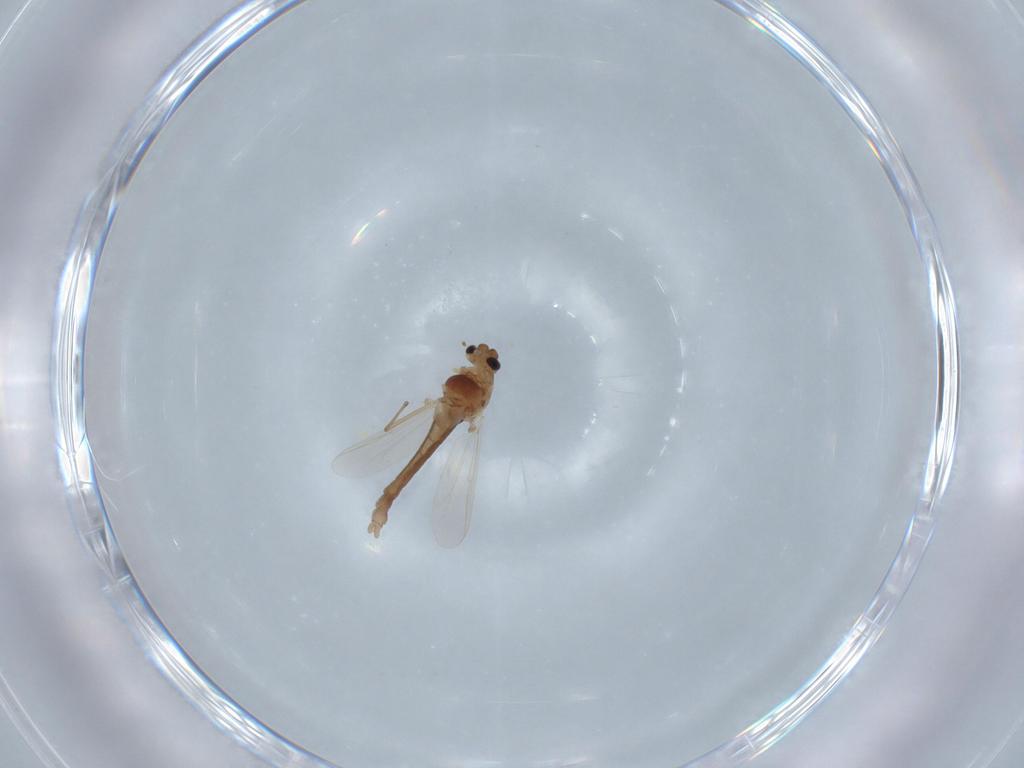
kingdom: Animalia
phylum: Arthropoda
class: Insecta
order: Diptera
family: Chironomidae
